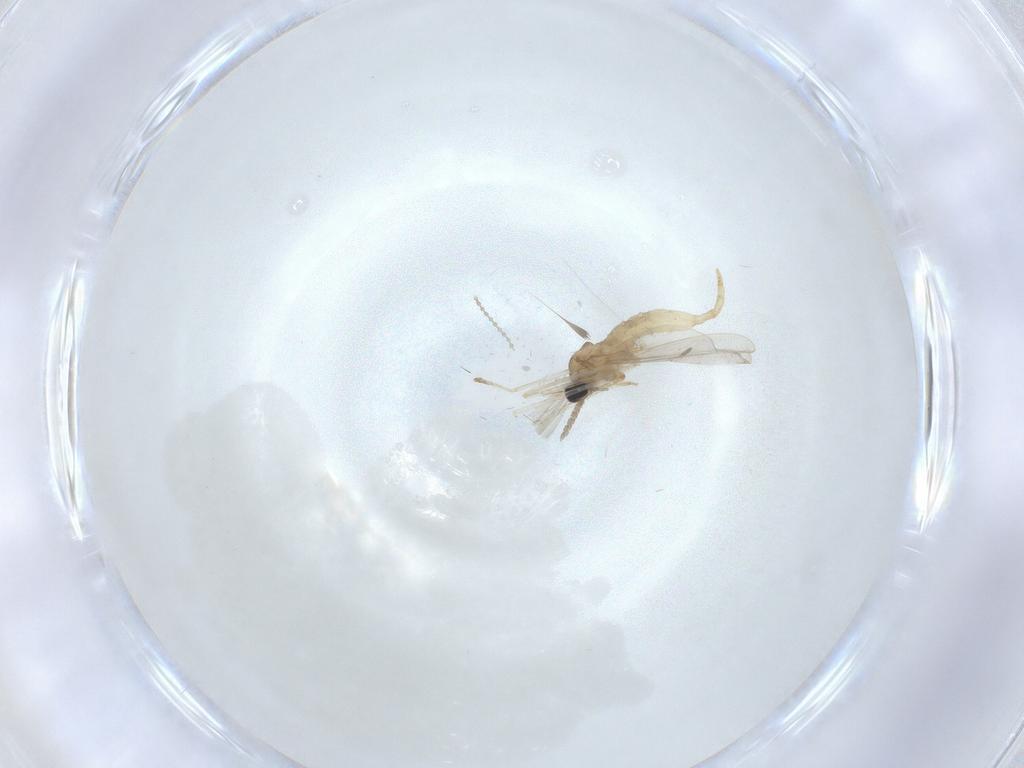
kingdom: Animalia
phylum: Arthropoda
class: Insecta
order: Diptera
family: Cecidomyiidae
